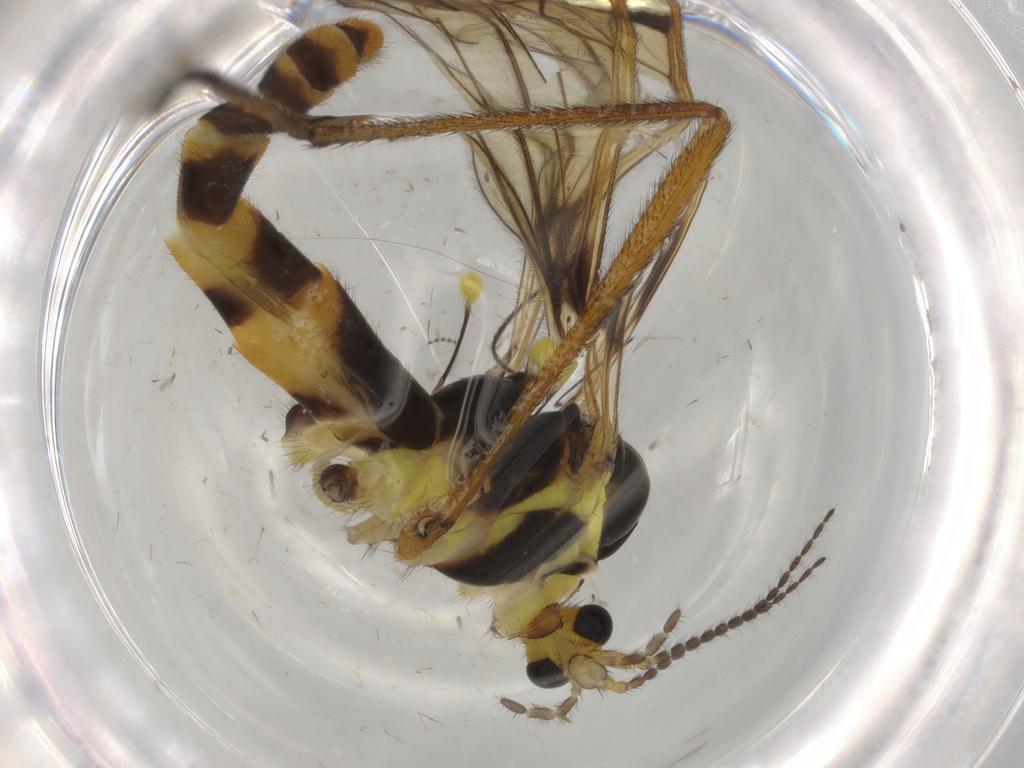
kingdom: Animalia
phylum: Arthropoda
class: Insecta
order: Diptera
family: Limoniidae
